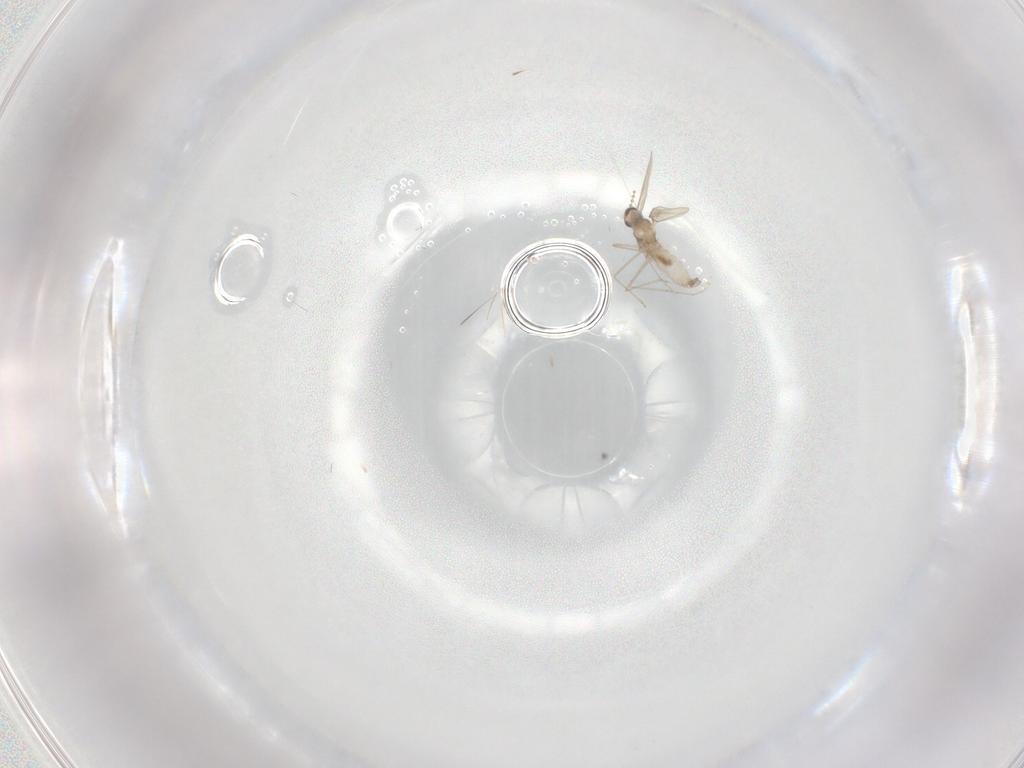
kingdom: Animalia
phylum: Arthropoda
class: Insecta
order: Diptera
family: Cecidomyiidae
